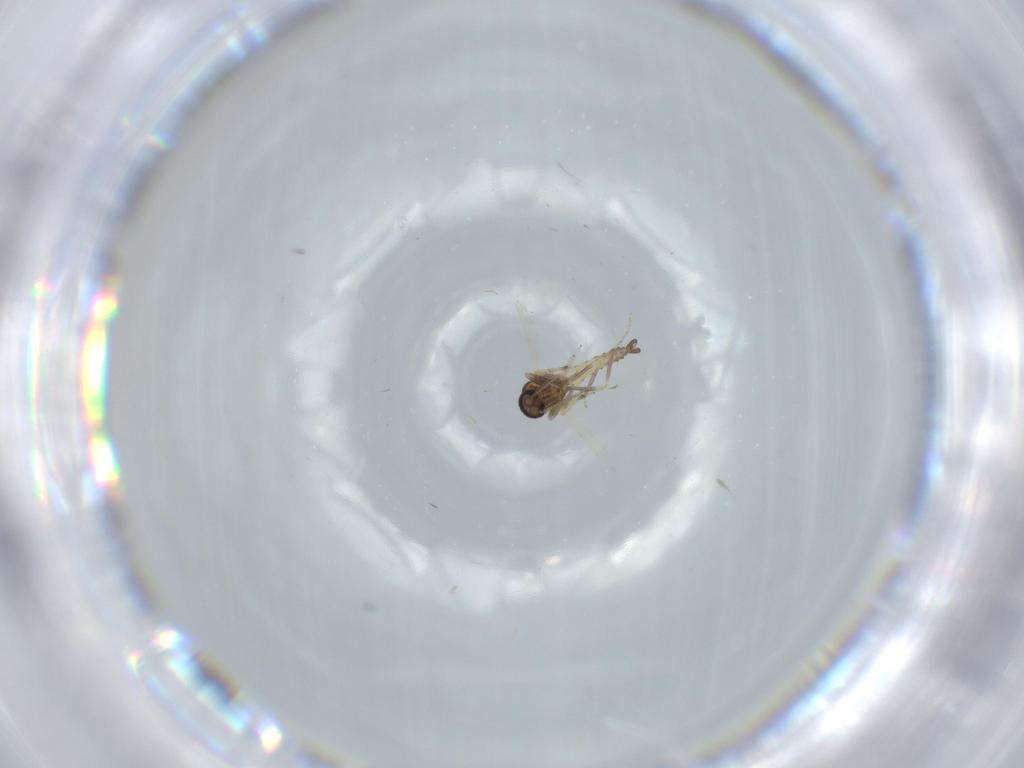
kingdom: Animalia
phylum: Arthropoda
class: Insecta
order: Diptera
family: Ceratopogonidae
